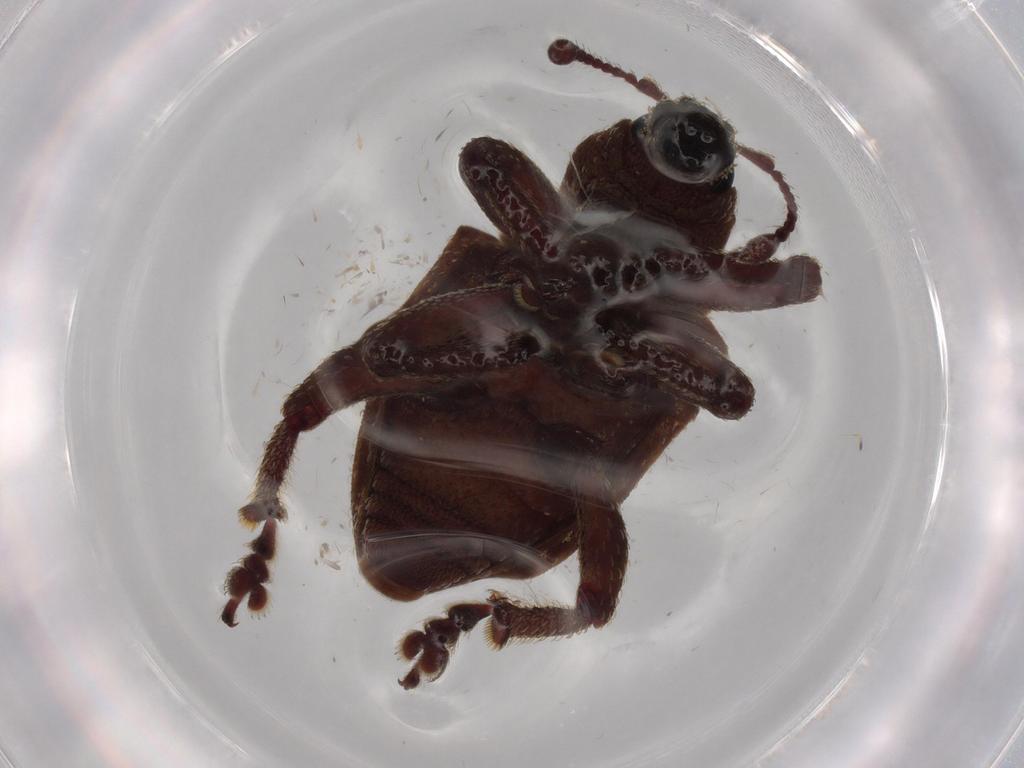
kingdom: Animalia
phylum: Arthropoda
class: Insecta
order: Coleoptera
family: Curculionidae
